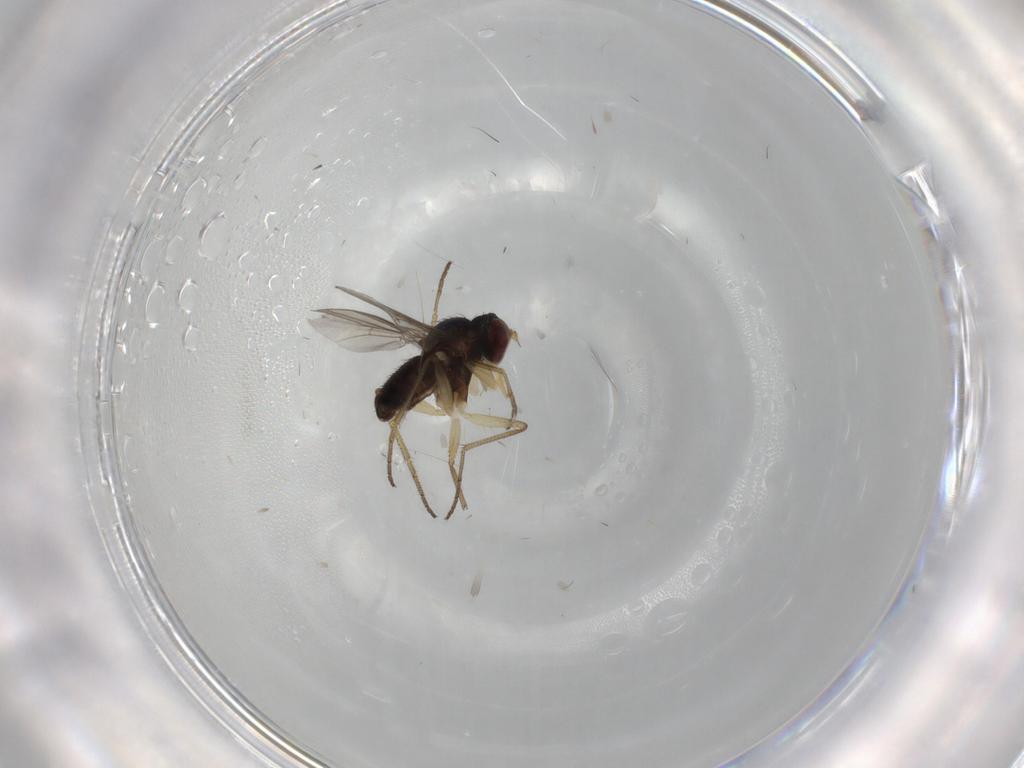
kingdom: Animalia
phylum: Arthropoda
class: Insecta
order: Diptera
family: Dolichopodidae
